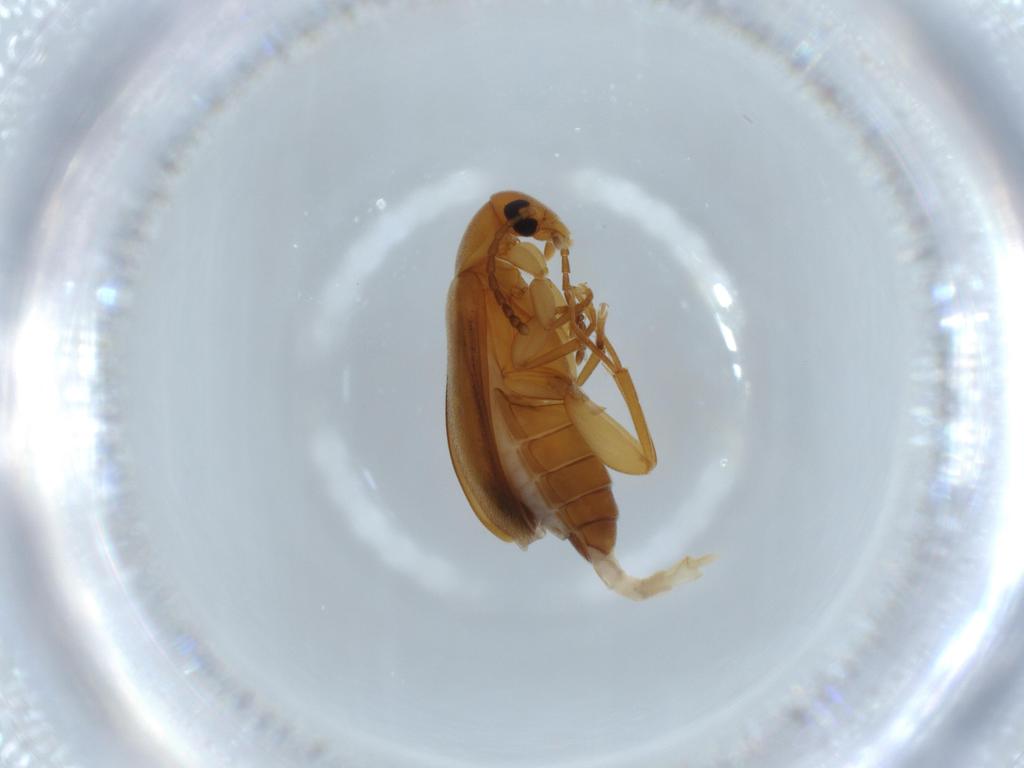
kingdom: Animalia
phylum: Arthropoda
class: Insecta
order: Coleoptera
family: Scraptiidae
